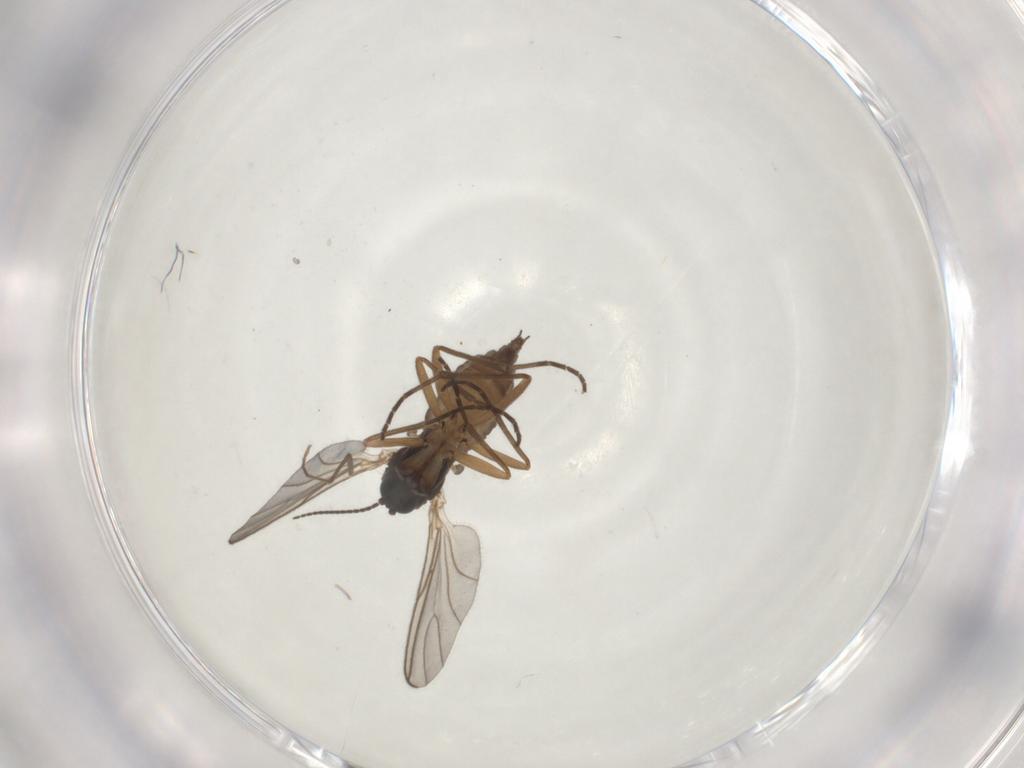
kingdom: Animalia
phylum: Arthropoda
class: Insecta
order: Diptera
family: Sciaridae
